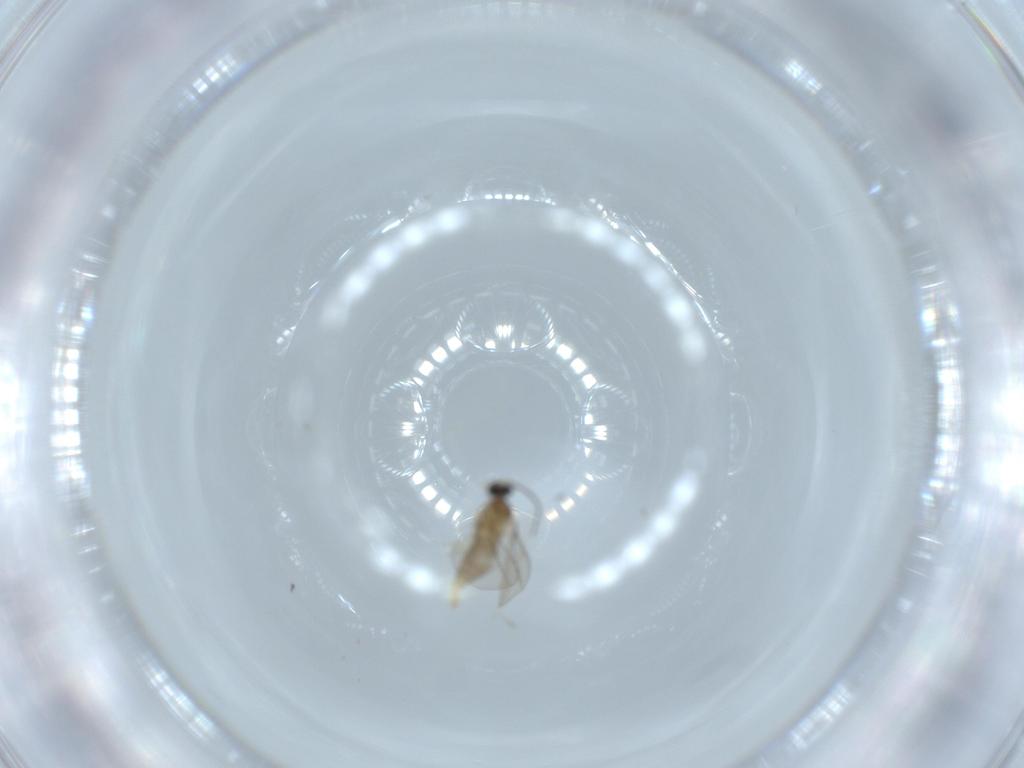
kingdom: Animalia
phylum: Arthropoda
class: Insecta
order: Diptera
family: Cecidomyiidae
